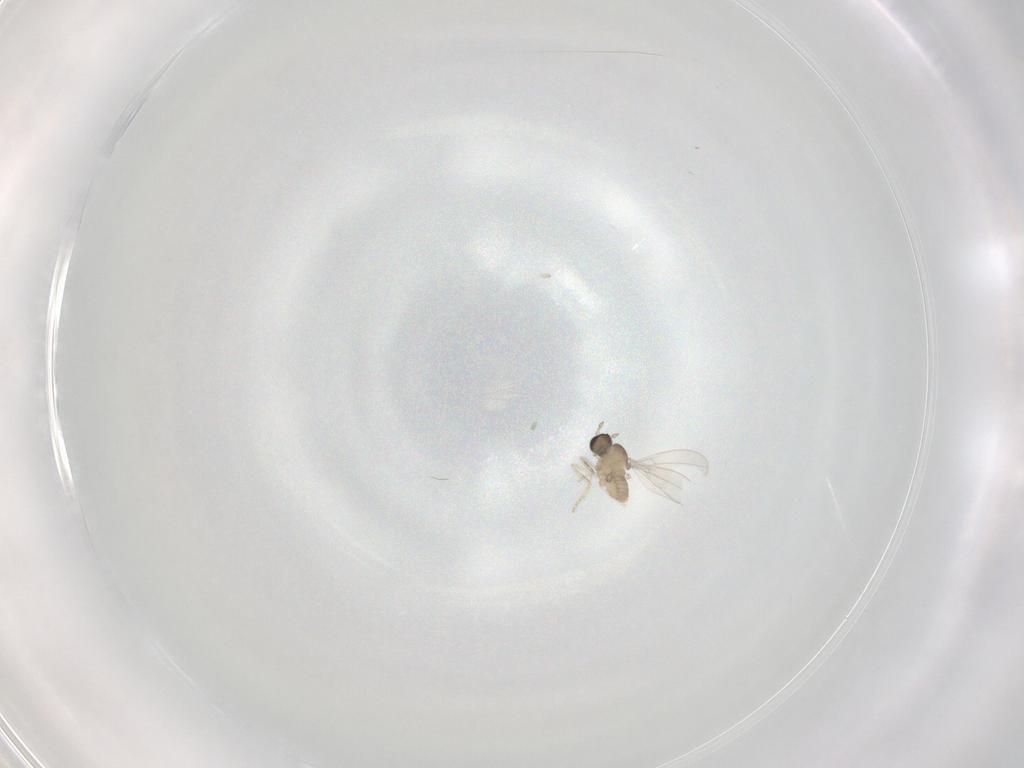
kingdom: Animalia
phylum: Arthropoda
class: Insecta
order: Diptera
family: Cecidomyiidae
